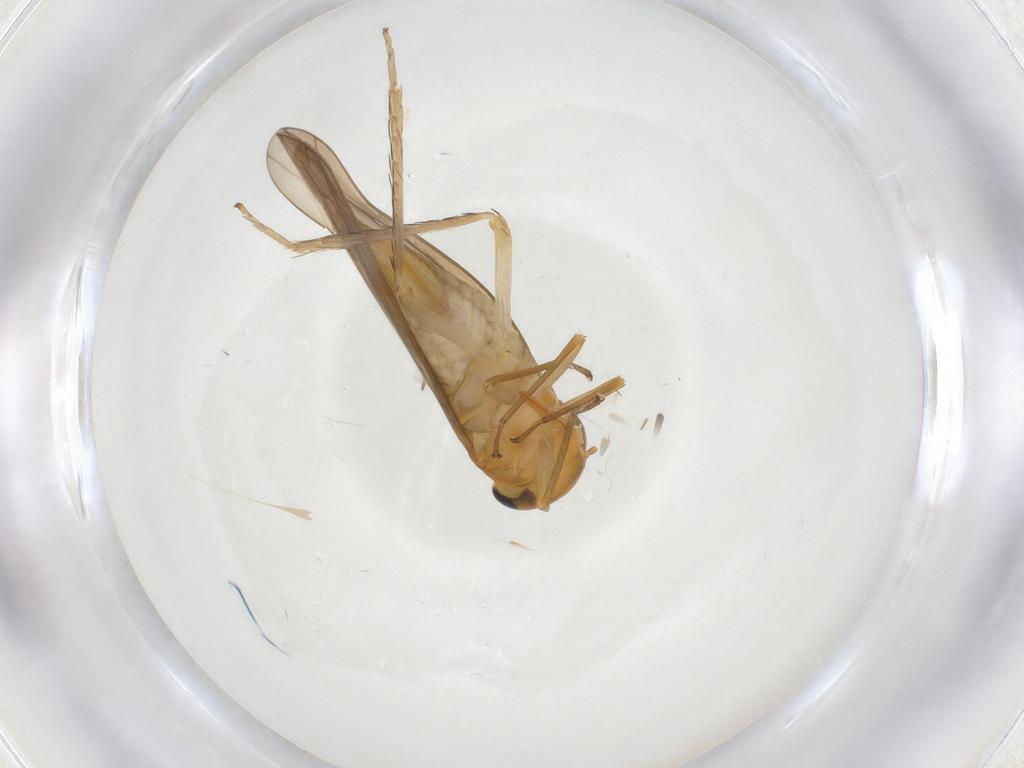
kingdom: Animalia
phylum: Arthropoda
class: Insecta
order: Hemiptera
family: Cicadellidae
